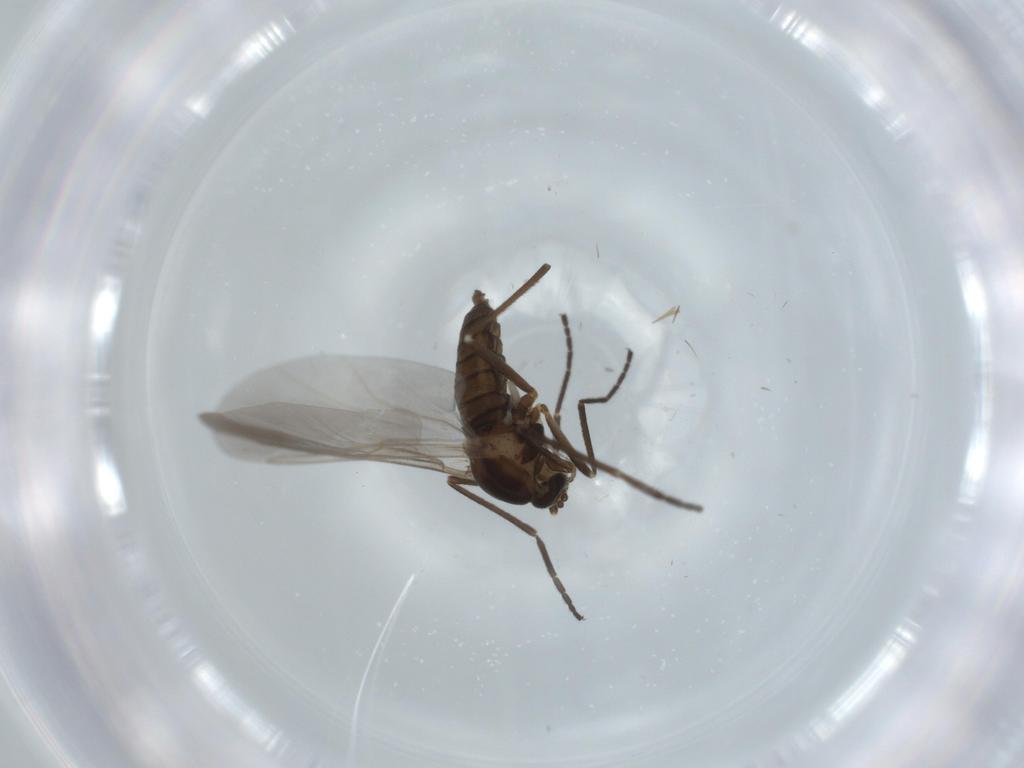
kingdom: Animalia
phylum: Arthropoda
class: Insecta
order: Diptera
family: Cecidomyiidae
